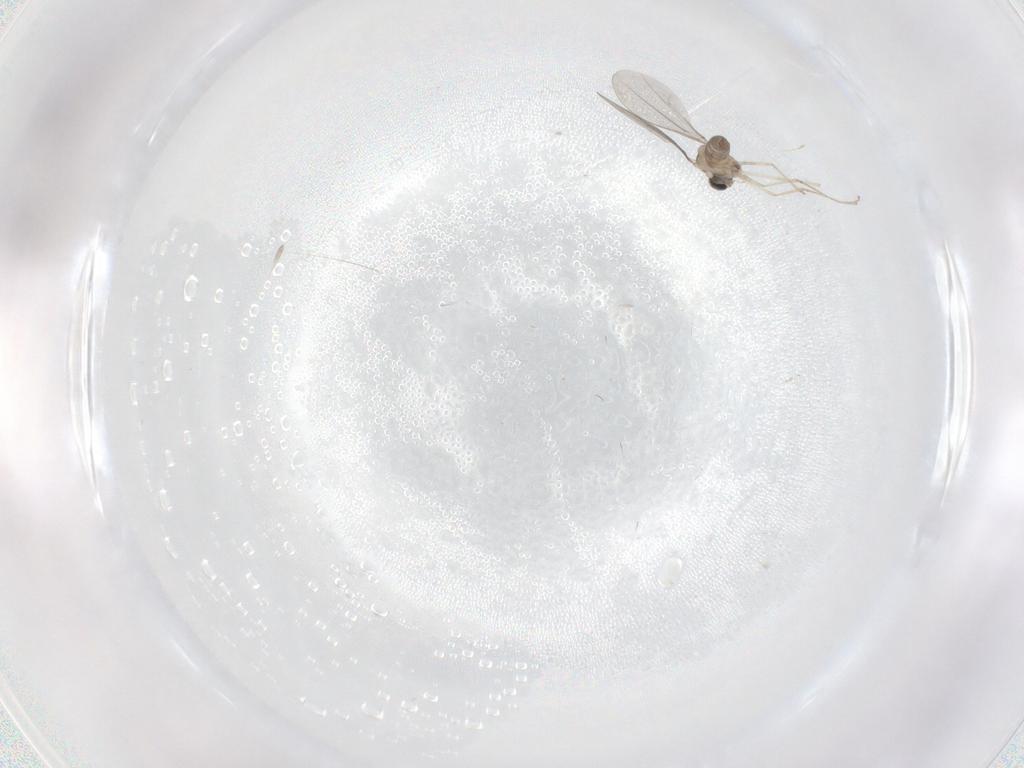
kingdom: Animalia
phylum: Arthropoda
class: Insecta
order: Diptera
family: Cecidomyiidae
